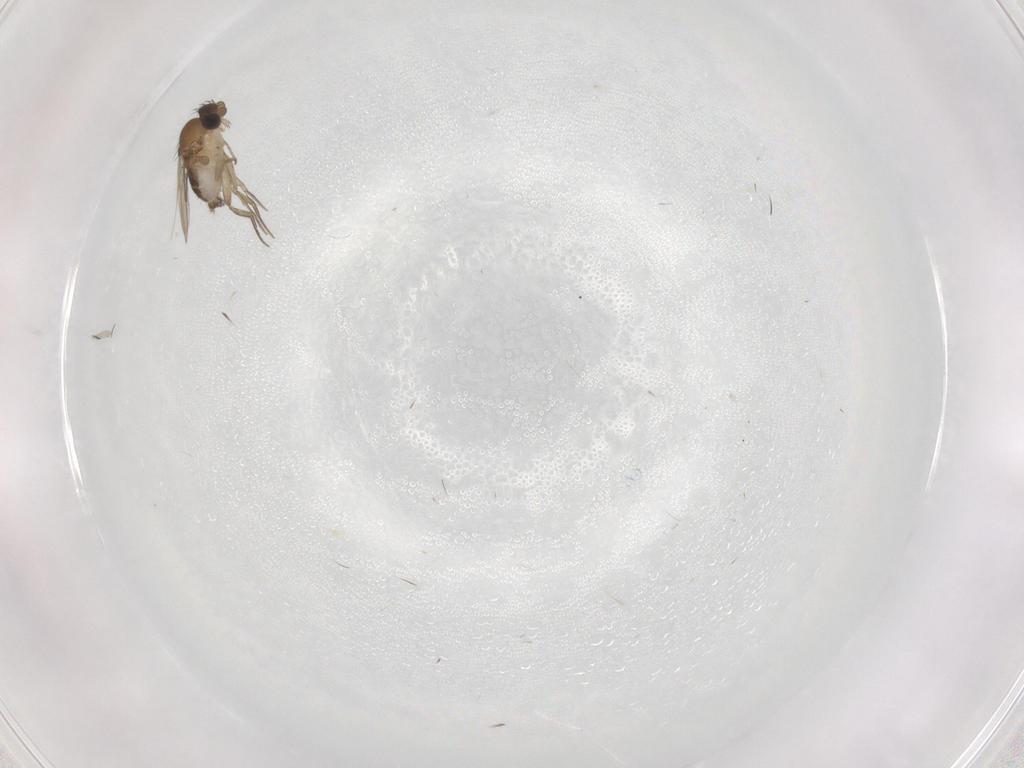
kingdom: Animalia
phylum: Arthropoda
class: Insecta
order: Diptera
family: Phoridae
